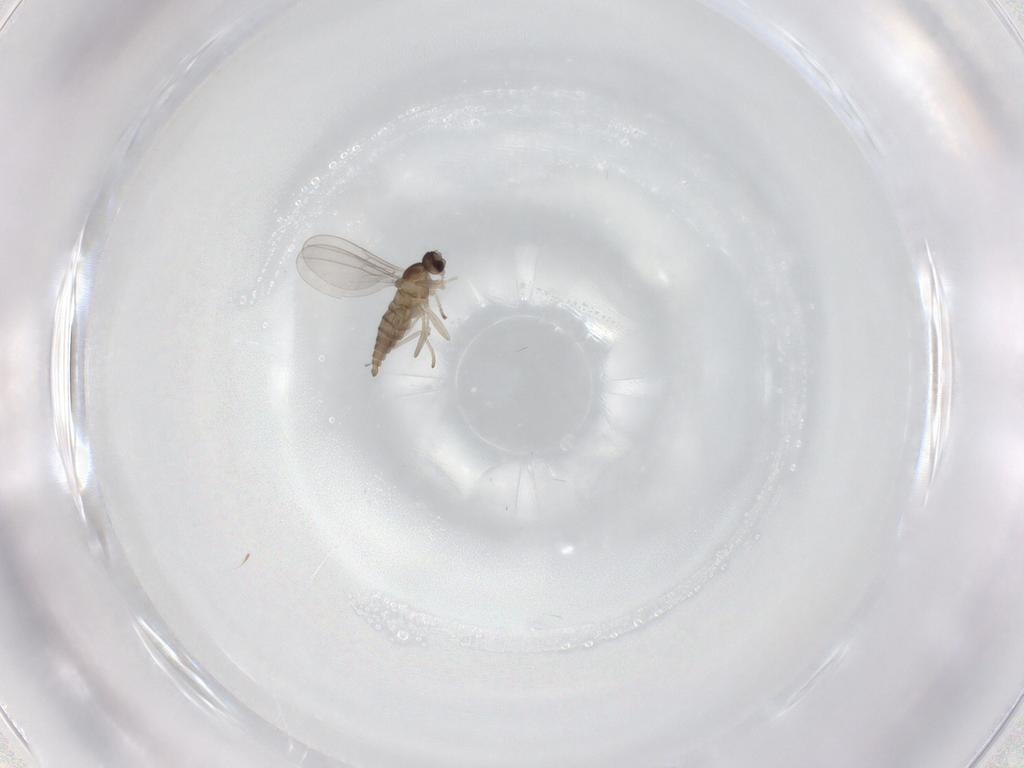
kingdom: Animalia
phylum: Arthropoda
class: Insecta
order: Diptera
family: Cecidomyiidae
